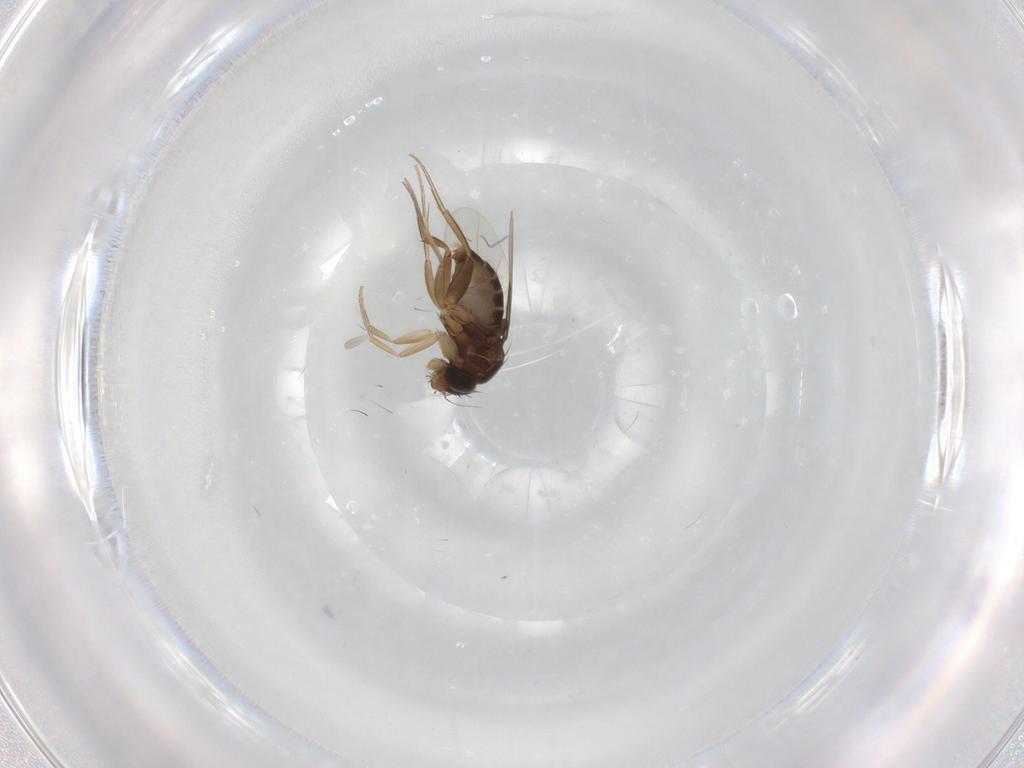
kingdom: Animalia
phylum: Arthropoda
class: Insecta
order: Diptera
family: Phoridae
